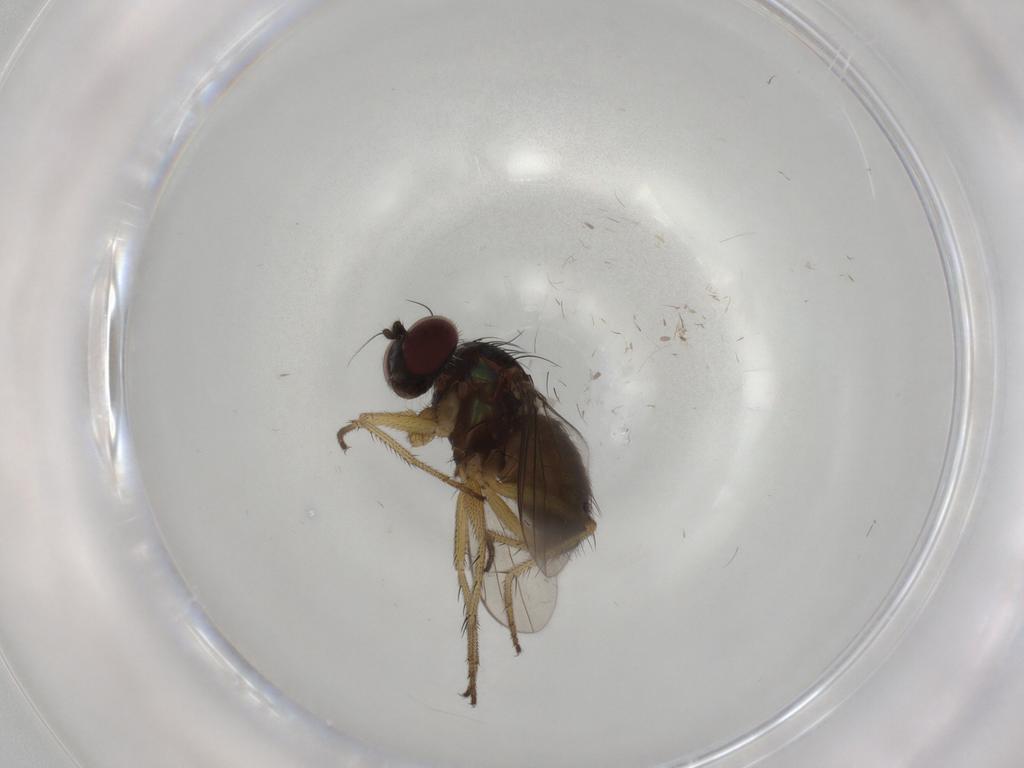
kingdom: Animalia
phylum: Arthropoda
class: Insecta
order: Diptera
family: Dolichopodidae
